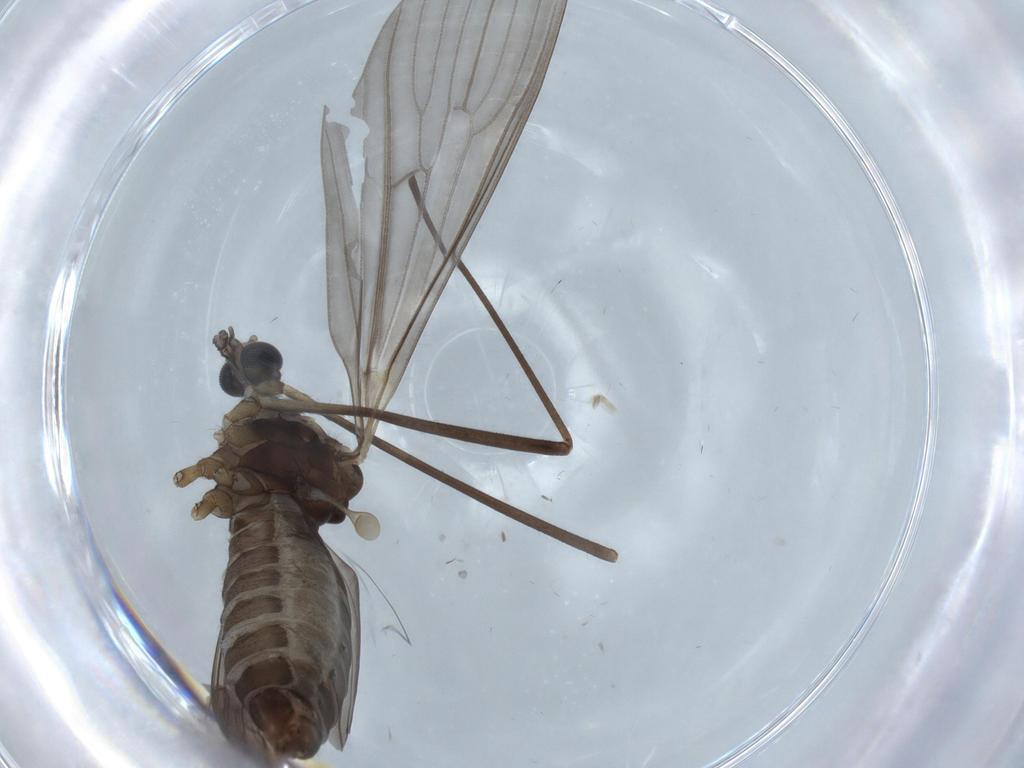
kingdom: Animalia
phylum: Arthropoda
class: Insecta
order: Diptera
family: Limoniidae
